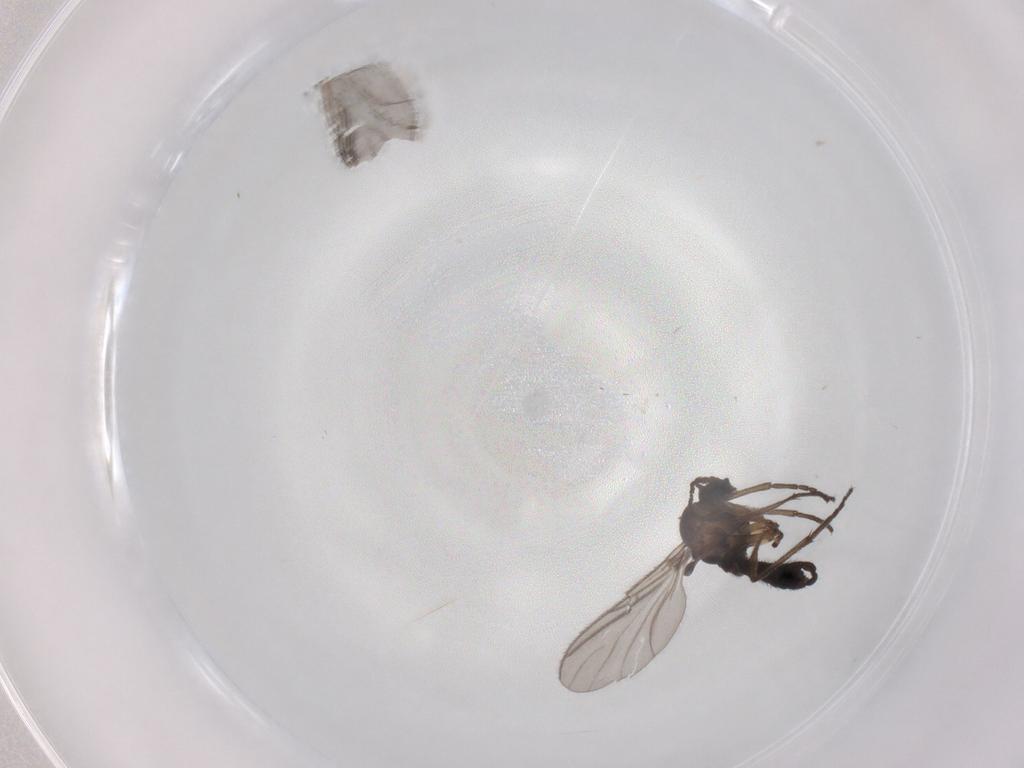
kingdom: Animalia
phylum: Arthropoda
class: Insecta
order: Diptera
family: Sciaridae
